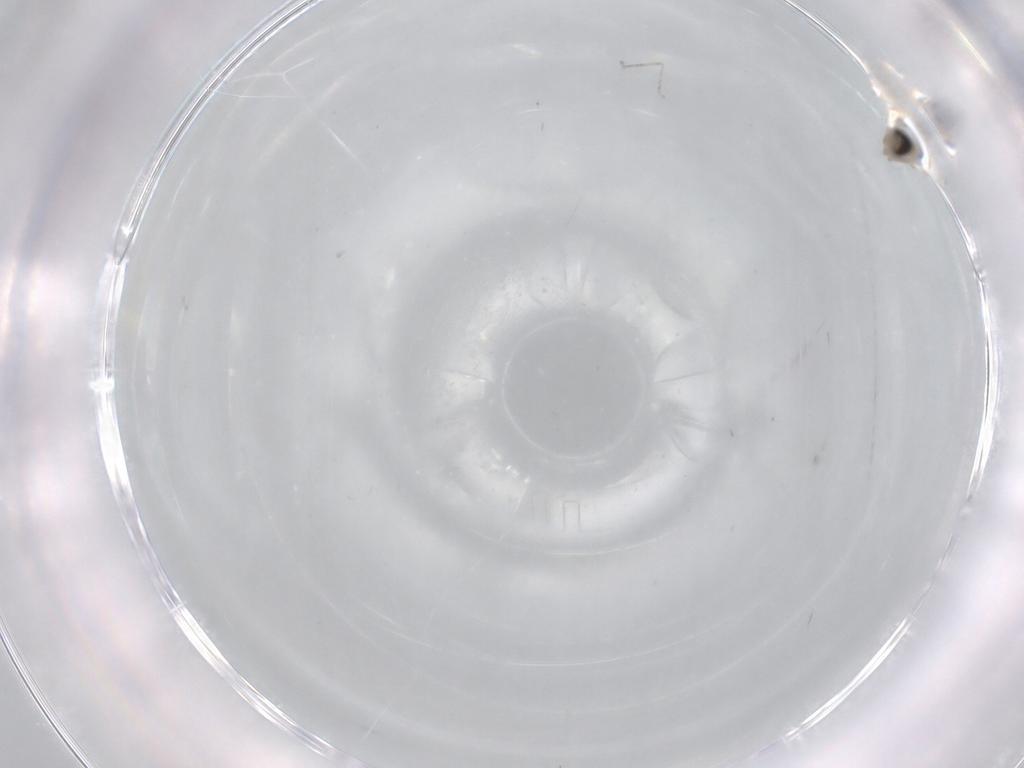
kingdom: Animalia
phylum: Arthropoda
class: Insecta
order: Diptera
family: Cecidomyiidae
